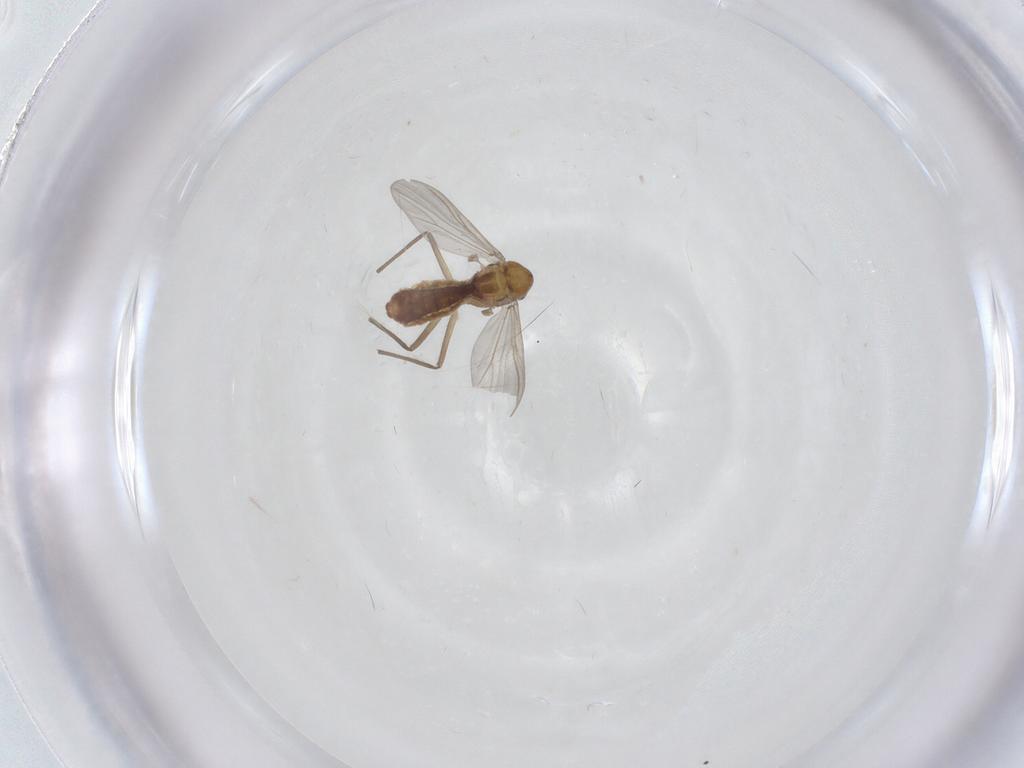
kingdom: Animalia
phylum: Arthropoda
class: Insecta
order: Diptera
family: Chironomidae
